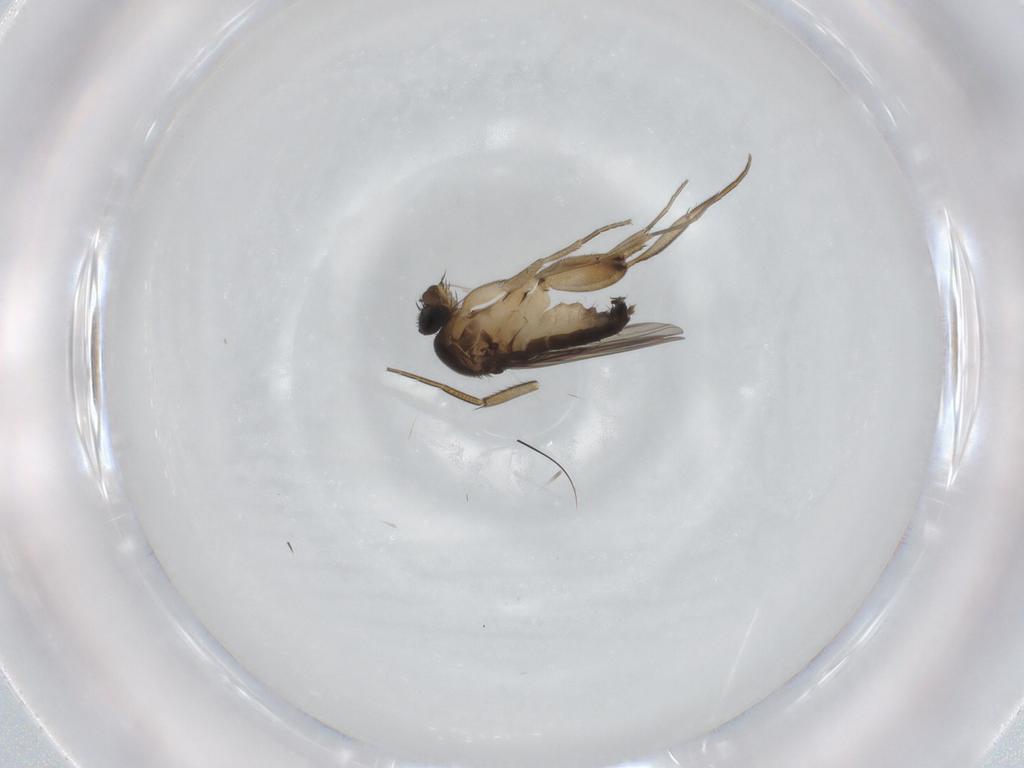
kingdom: Animalia
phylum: Arthropoda
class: Insecta
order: Diptera
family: Phoridae
